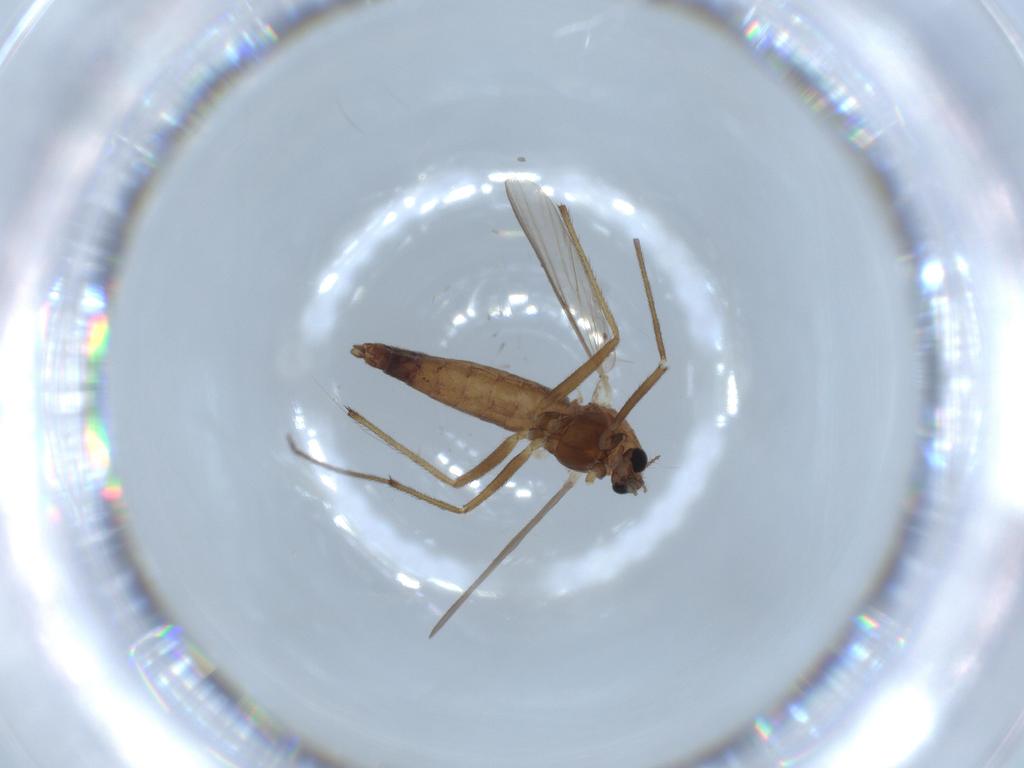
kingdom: Animalia
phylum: Arthropoda
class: Insecta
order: Diptera
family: Chironomidae
